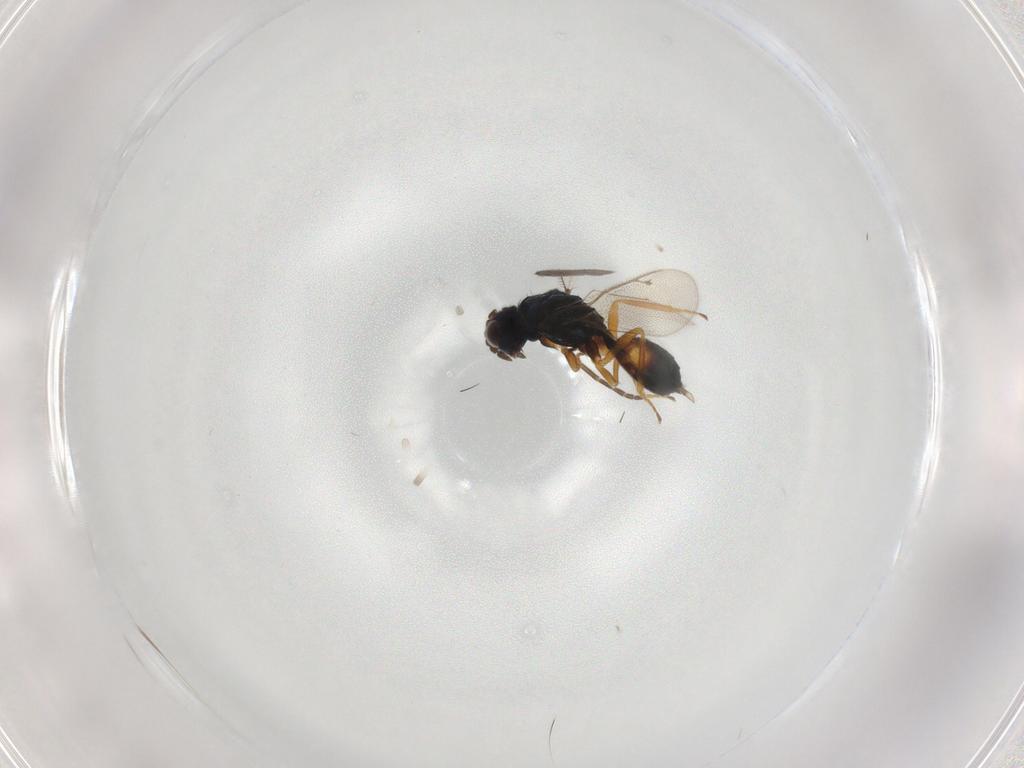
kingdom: Animalia
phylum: Arthropoda
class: Insecta
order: Hymenoptera
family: Eulophidae
